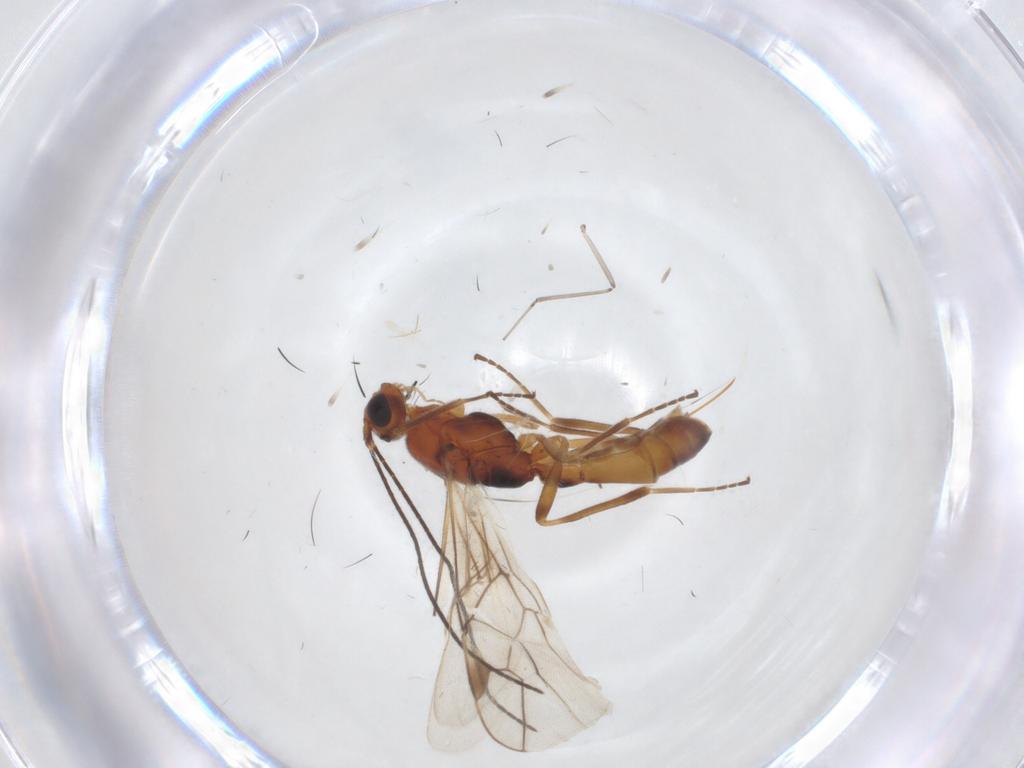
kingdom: Animalia
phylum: Arthropoda
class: Insecta
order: Hymenoptera
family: Braconidae
